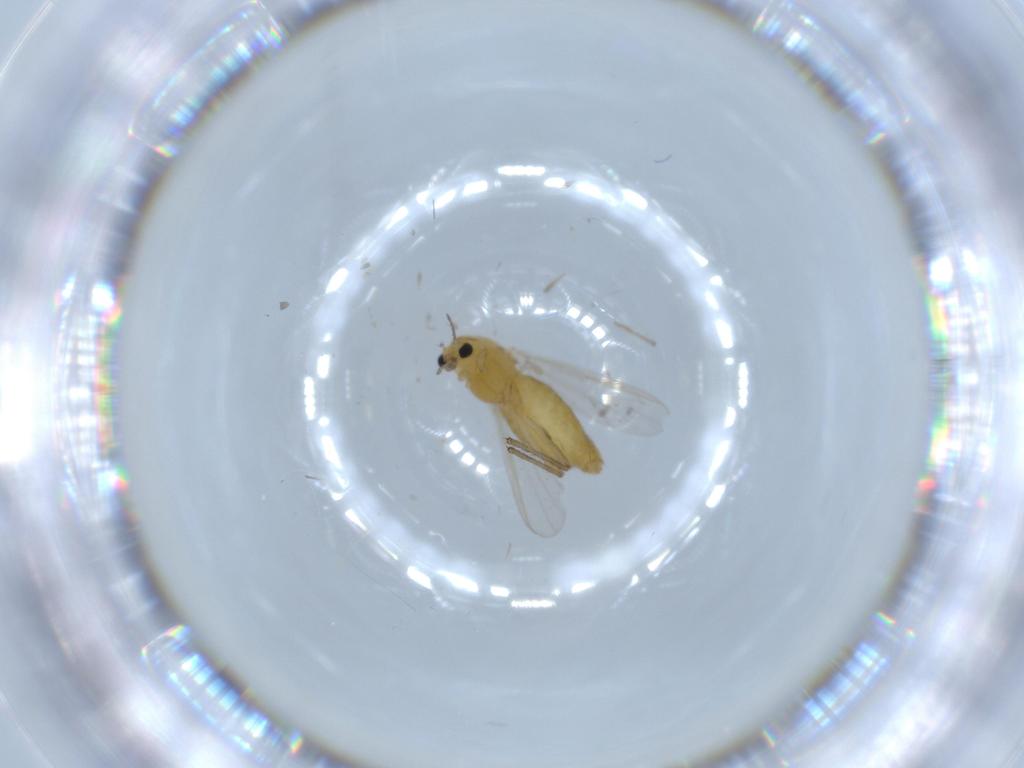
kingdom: Animalia
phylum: Arthropoda
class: Insecta
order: Diptera
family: Chironomidae
